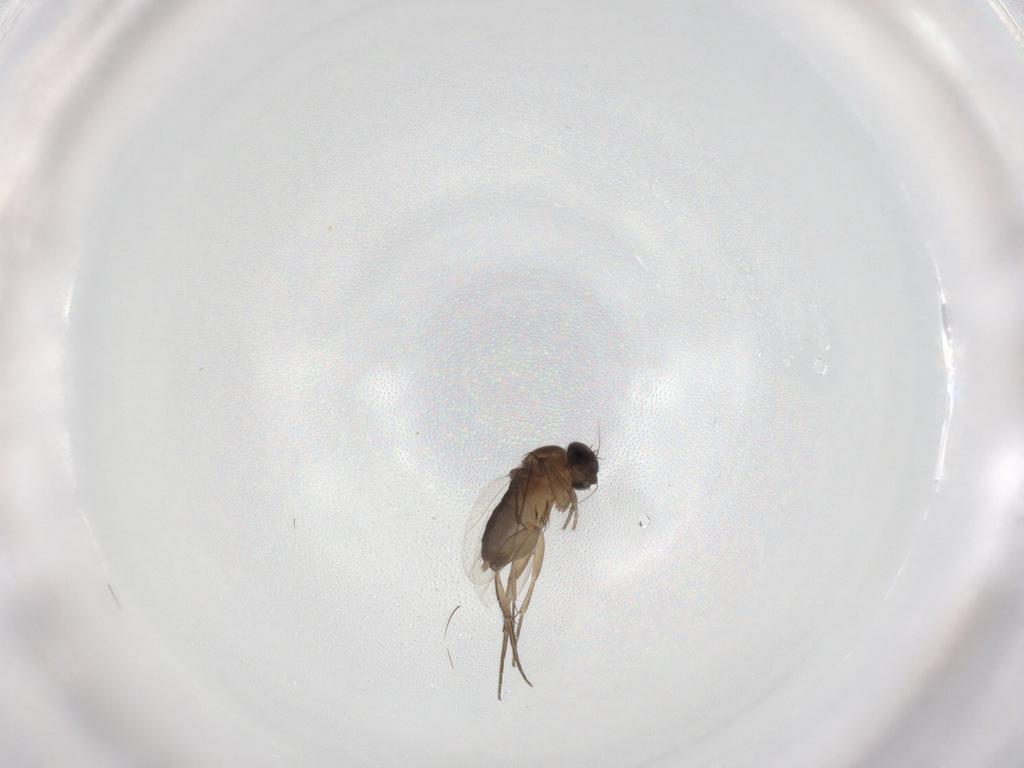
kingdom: Animalia
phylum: Arthropoda
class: Insecta
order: Diptera
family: Phoridae
